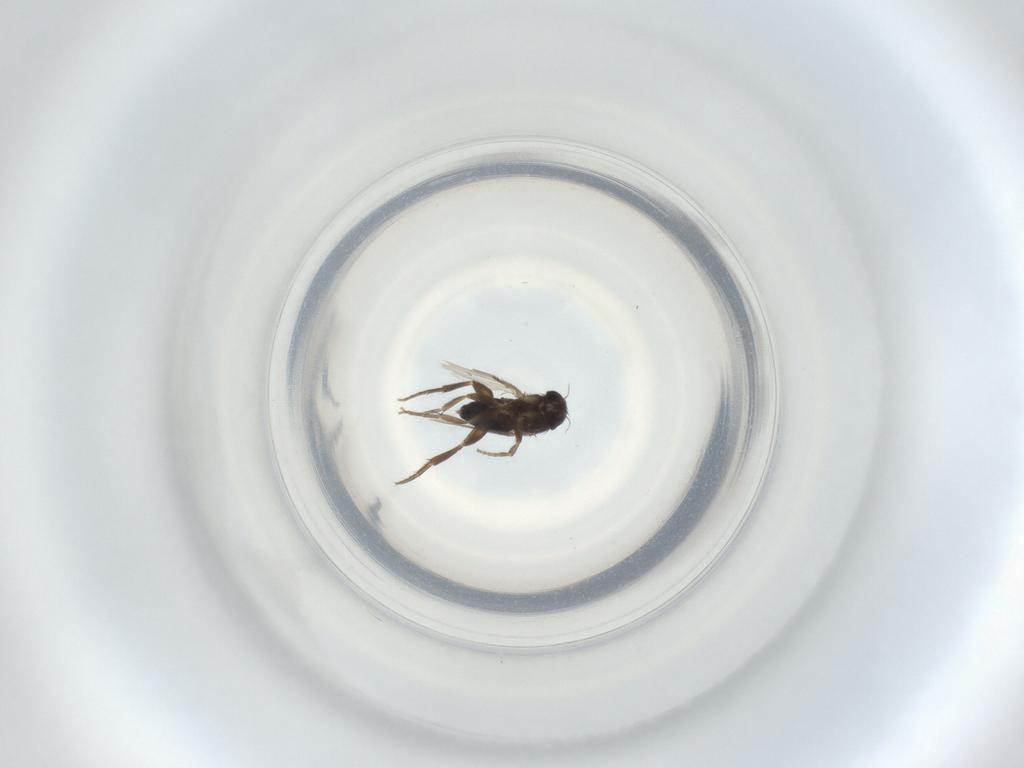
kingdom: Animalia
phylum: Arthropoda
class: Insecta
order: Diptera
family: Phoridae
